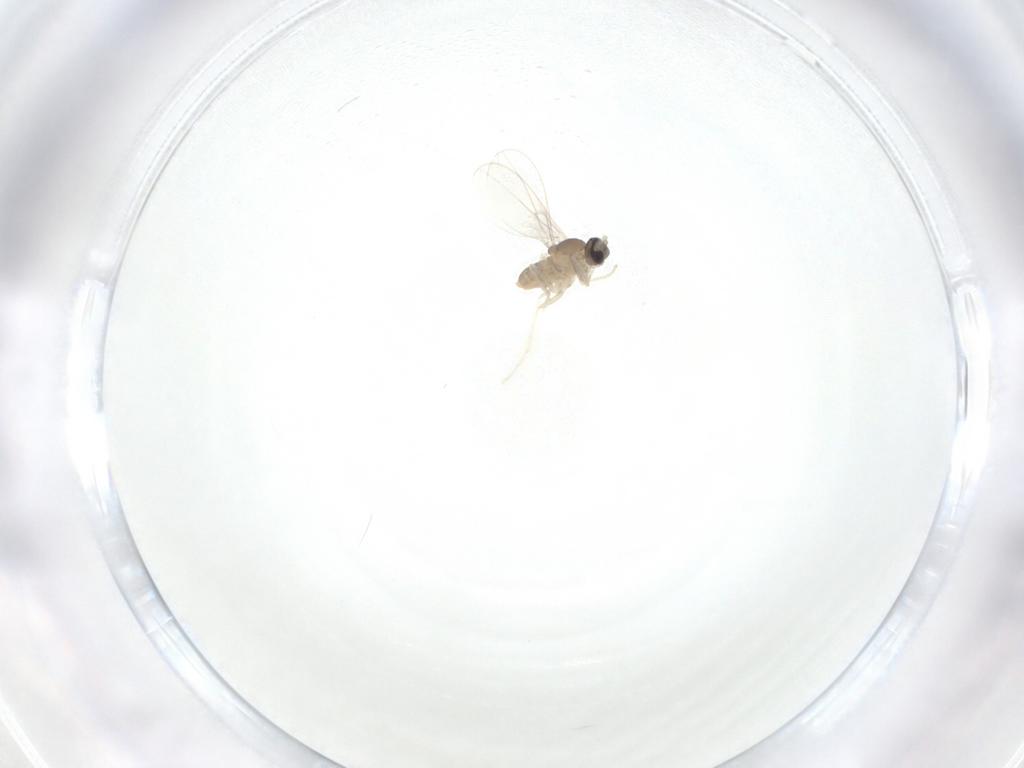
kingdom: Animalia
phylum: Arthropoda
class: Insecta
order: Diptera
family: Cecidomyiidae
